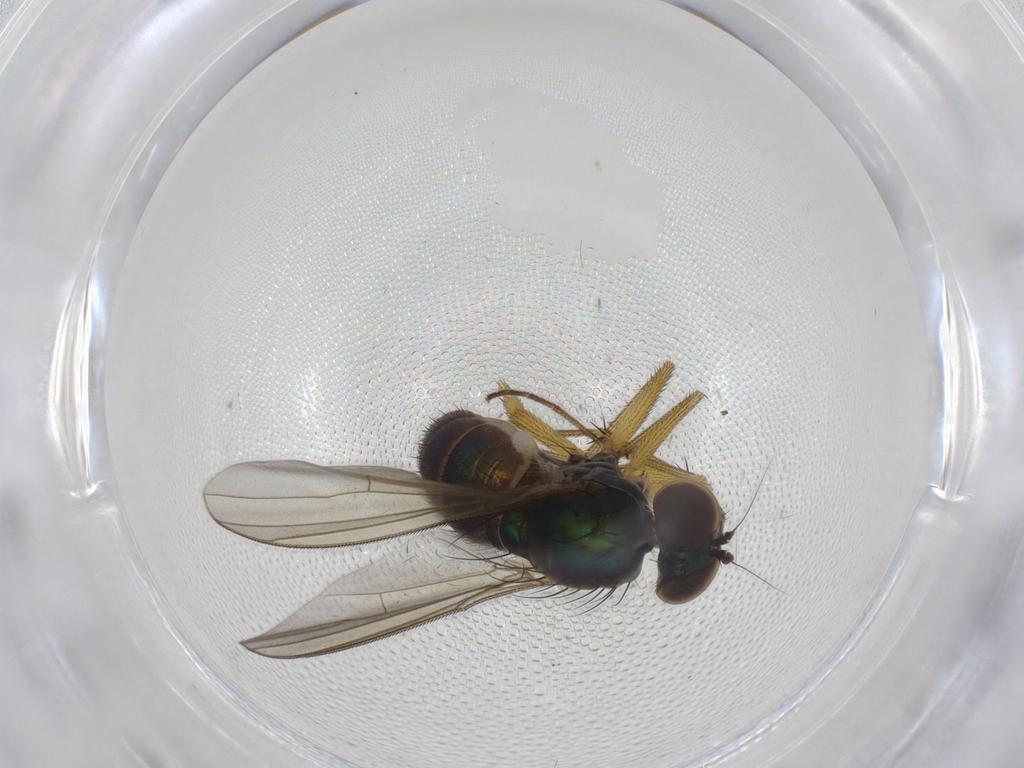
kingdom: Animalia
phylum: Arthropoda
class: Insecta
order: Diptera
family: Dolichopodidae
